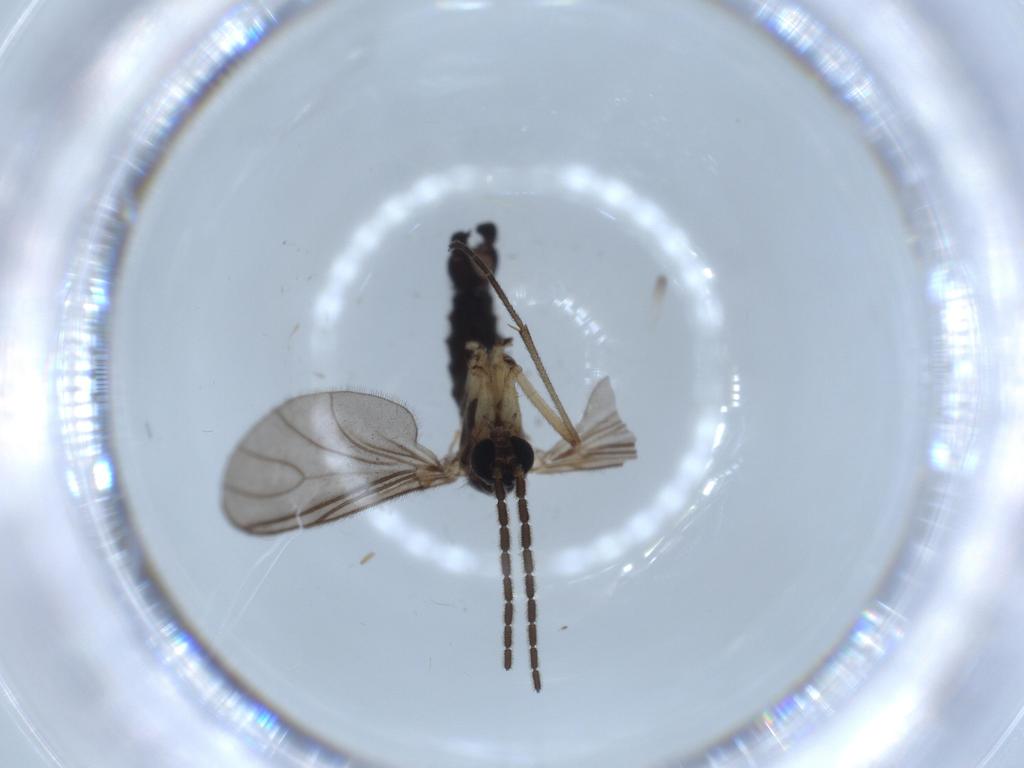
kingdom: Animalia
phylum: Arthropoda
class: Insecta
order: Diptera
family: Sciaridae
